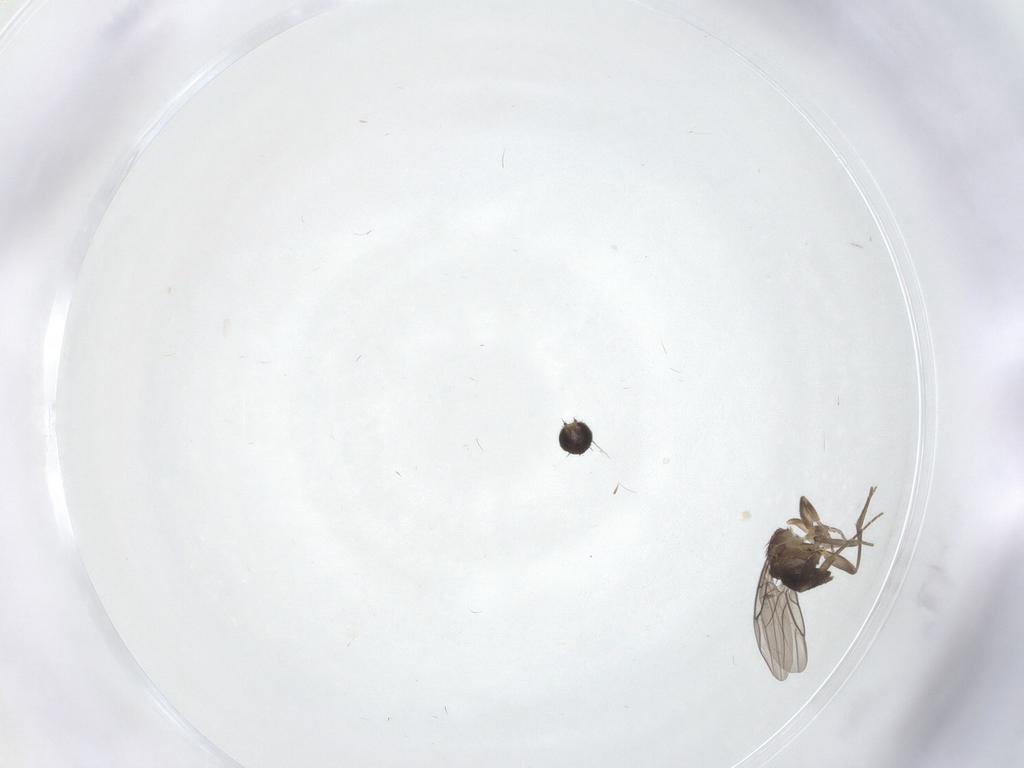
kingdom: Animalia
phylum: Arthropoda
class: Insecta
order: Diptera
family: Phoridae
